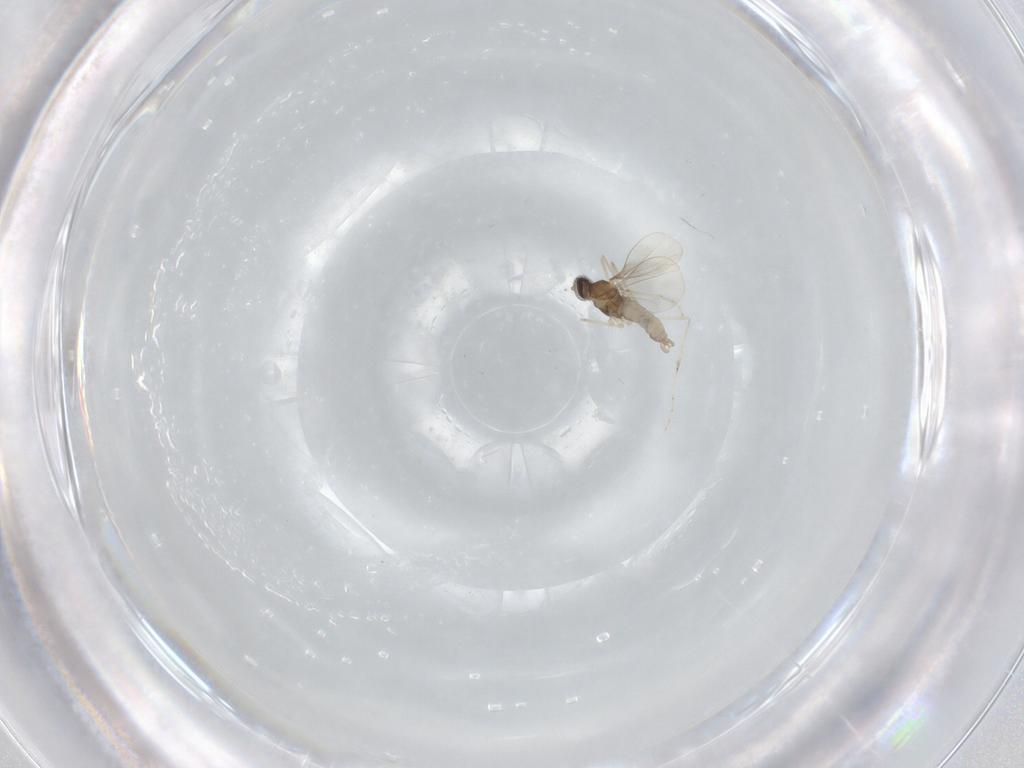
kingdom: Animalia
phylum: Arthropoda
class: Insecta
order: Diptera
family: Cecidomyiidae
